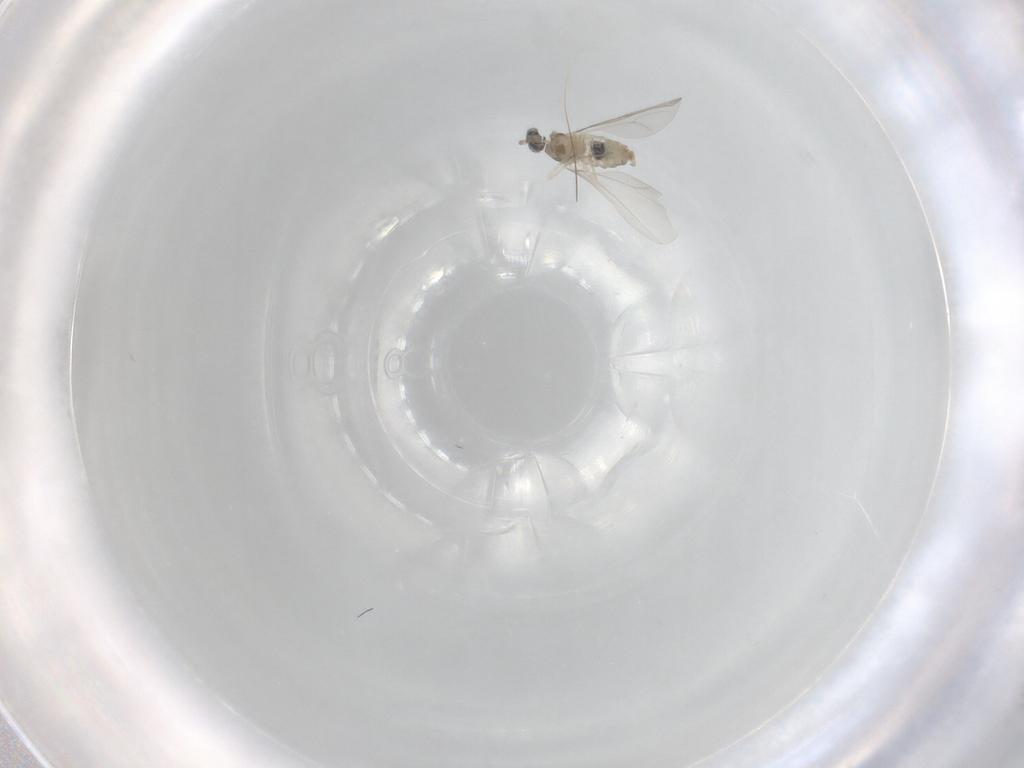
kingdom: Animalia
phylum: Arthropoda
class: Insecta
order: Diptera
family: Cecidomyiidae
